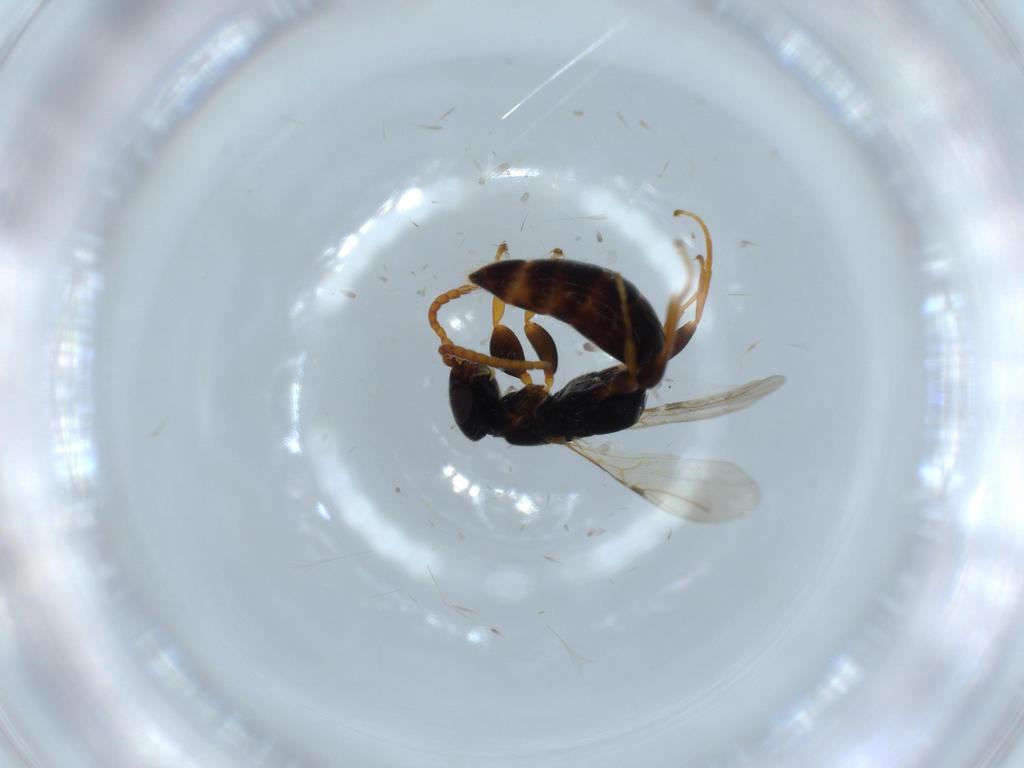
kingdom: Animalia
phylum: Arthropoda
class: Insecta
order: Hymenoptera
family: Bethylidae
